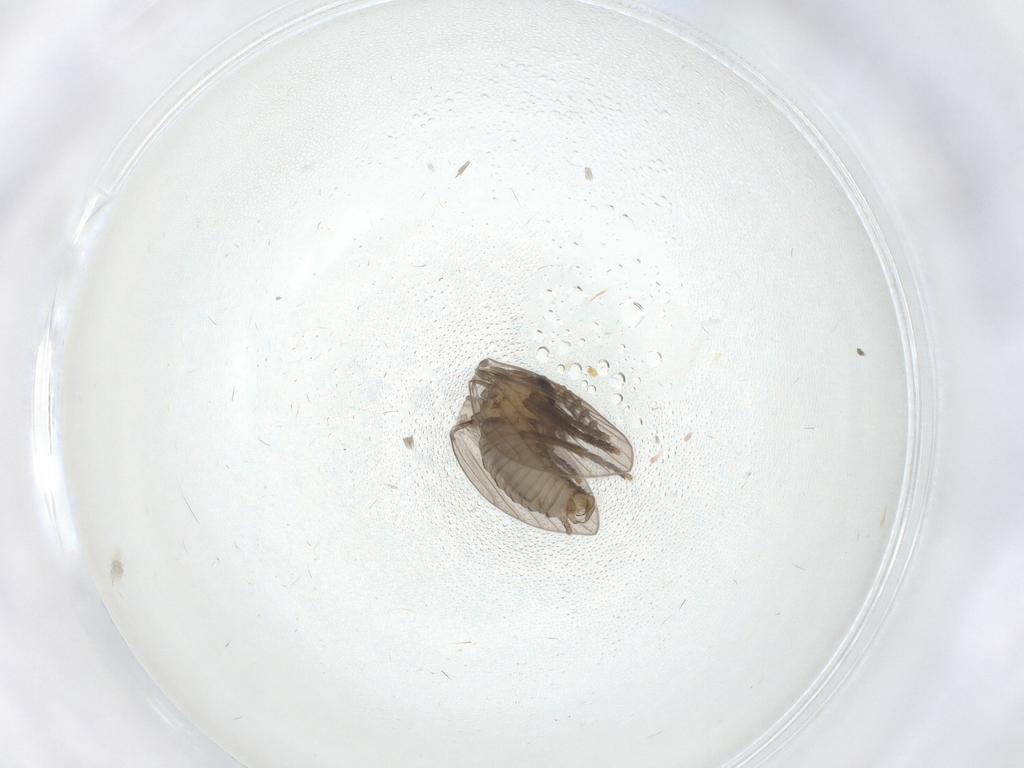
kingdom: Animalia
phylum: Arthropoda
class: Insecta
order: Diptera
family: Psychodidae
